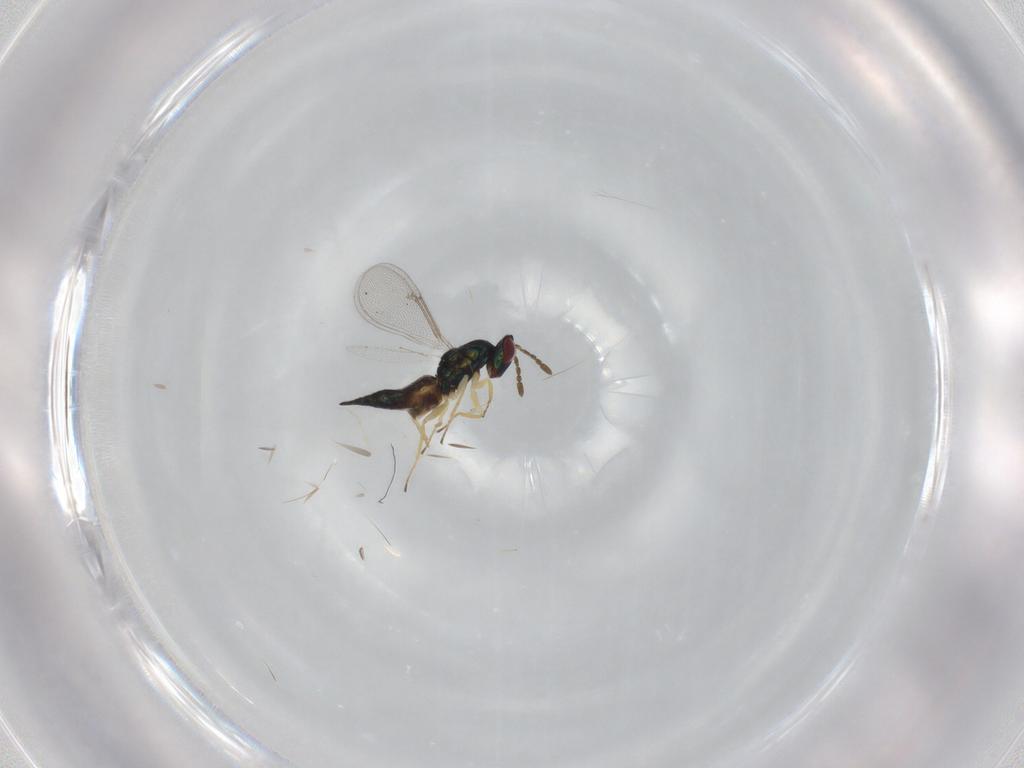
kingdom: Animalia
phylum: Arthropoda
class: Insecta
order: Hymenoptera
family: Eulophidae
